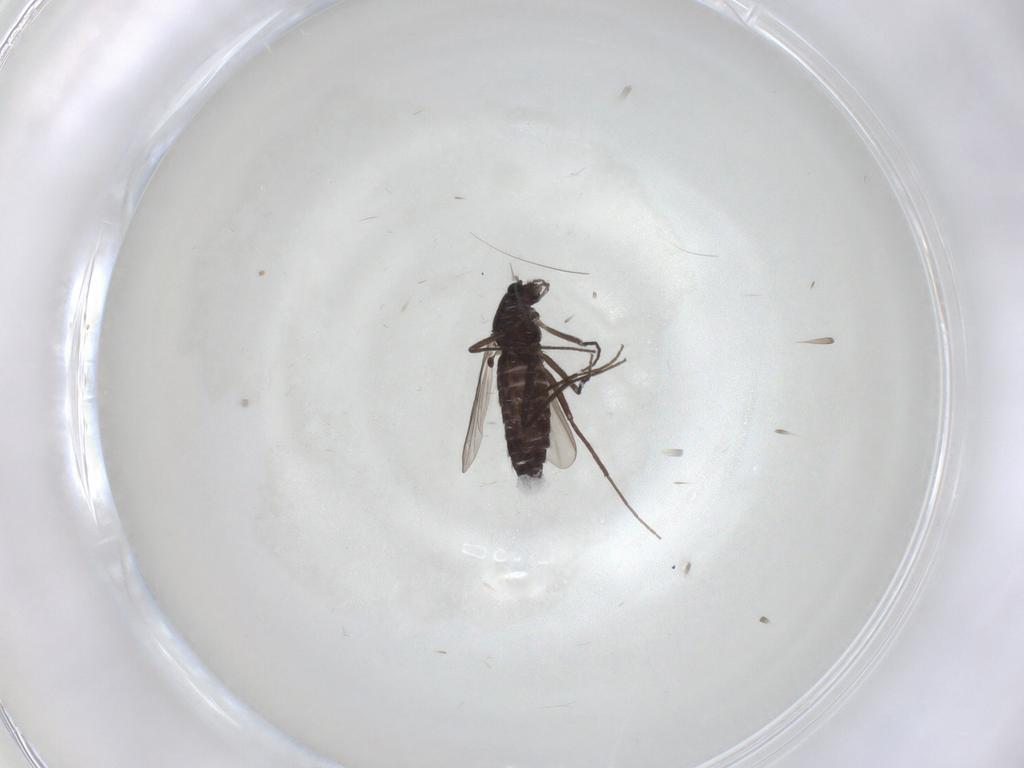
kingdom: Animalia
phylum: Arthropoda
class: Insecta
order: Diptera
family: Chironomidae
